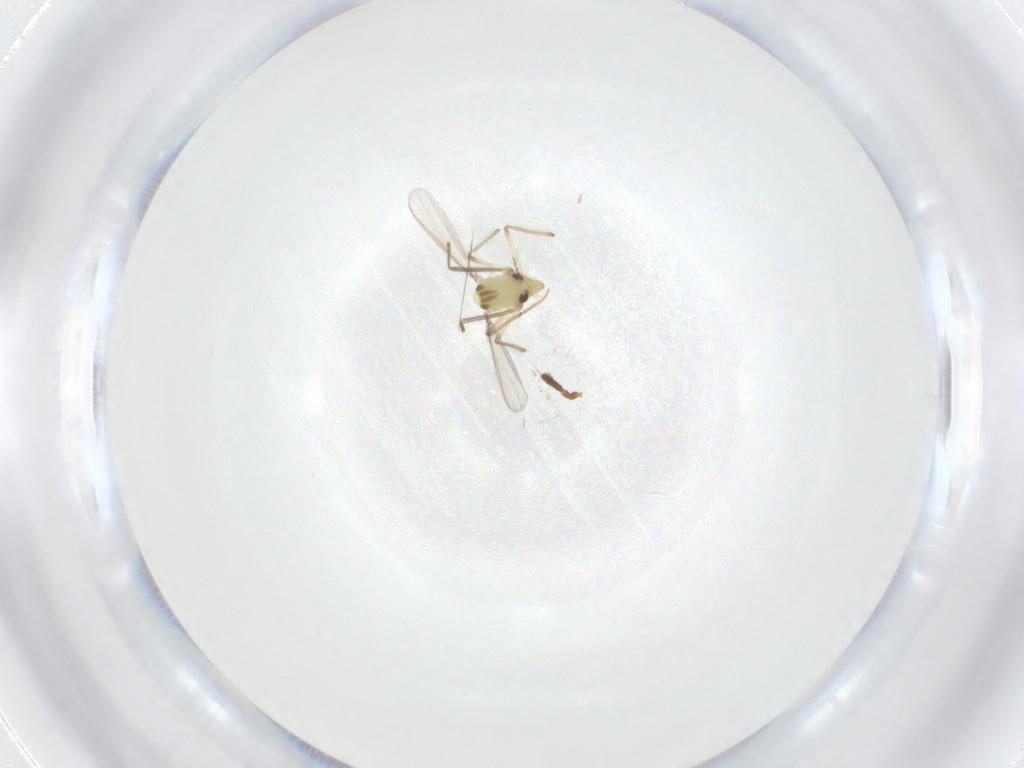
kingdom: Animalia
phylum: Arthropoda
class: Insecta
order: Diptera
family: Chironomidae
